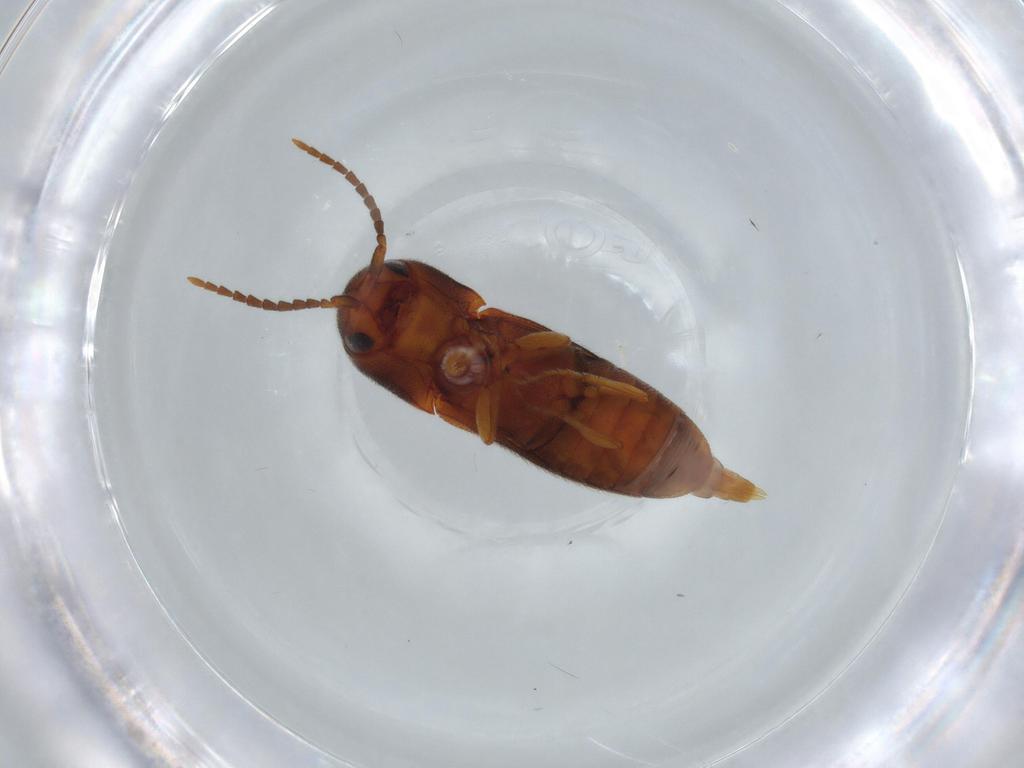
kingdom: Animalia
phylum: Arthropoda
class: Insecta
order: Coleoptera
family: Eucnemidae
